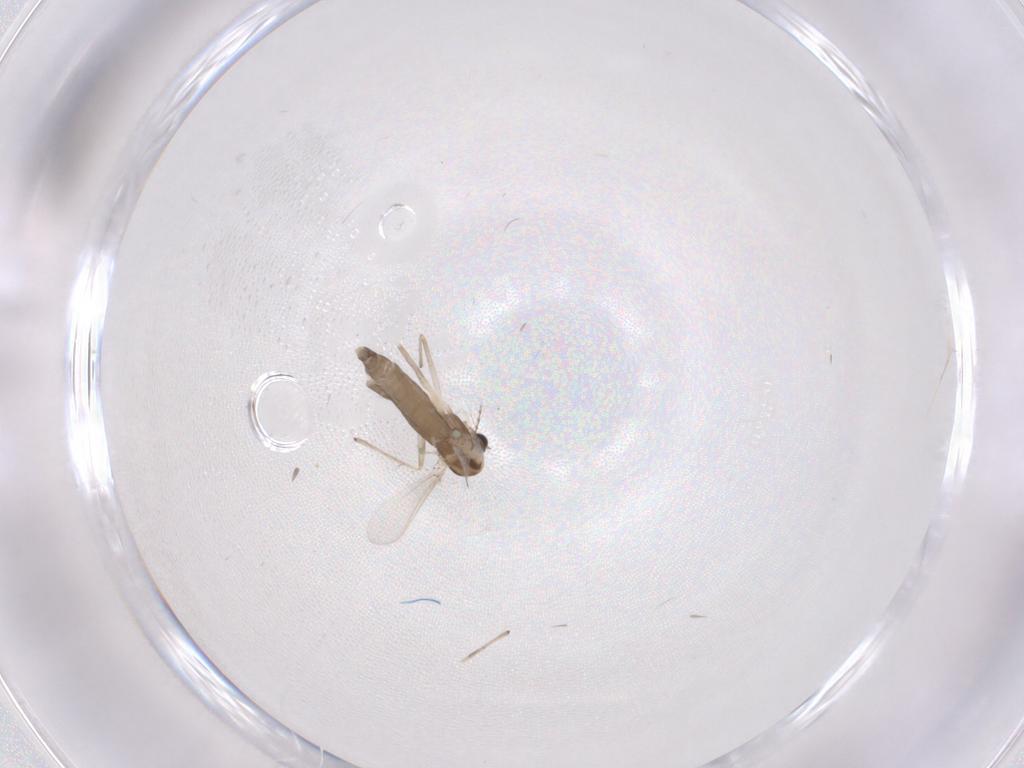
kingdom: Animalia
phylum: Arthropoda
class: Insecta
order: Diptera
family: Chironomidae
